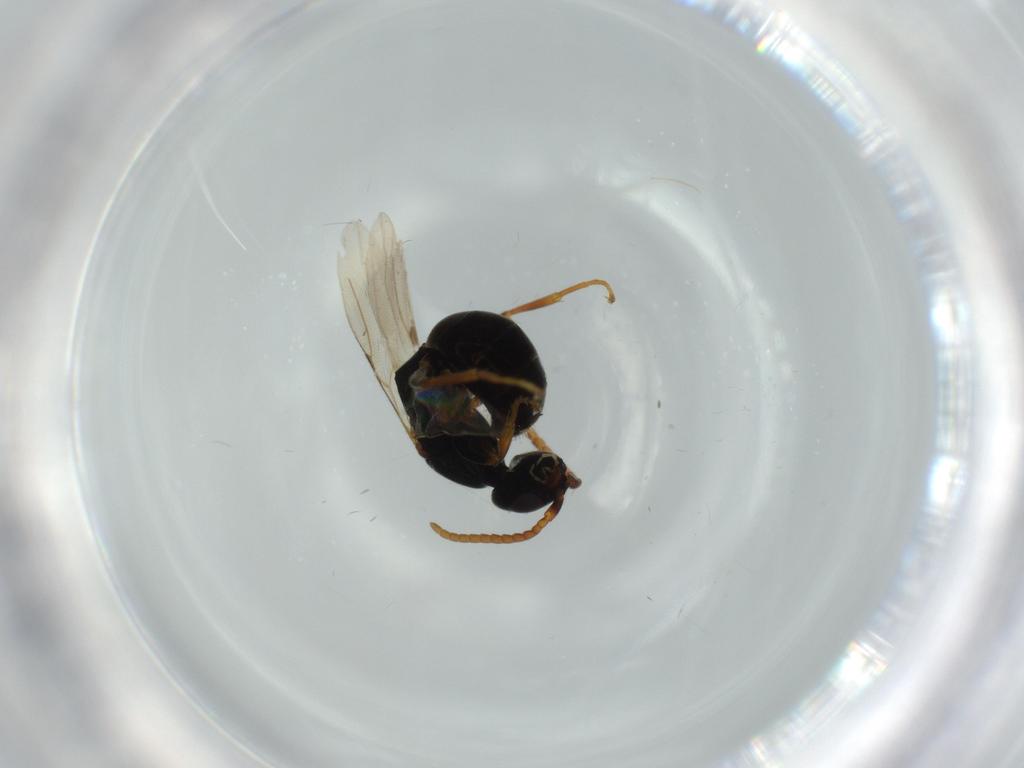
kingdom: Animalia
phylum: Arthropoda
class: Insecta
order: Hymenoptera
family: Bethylidae
